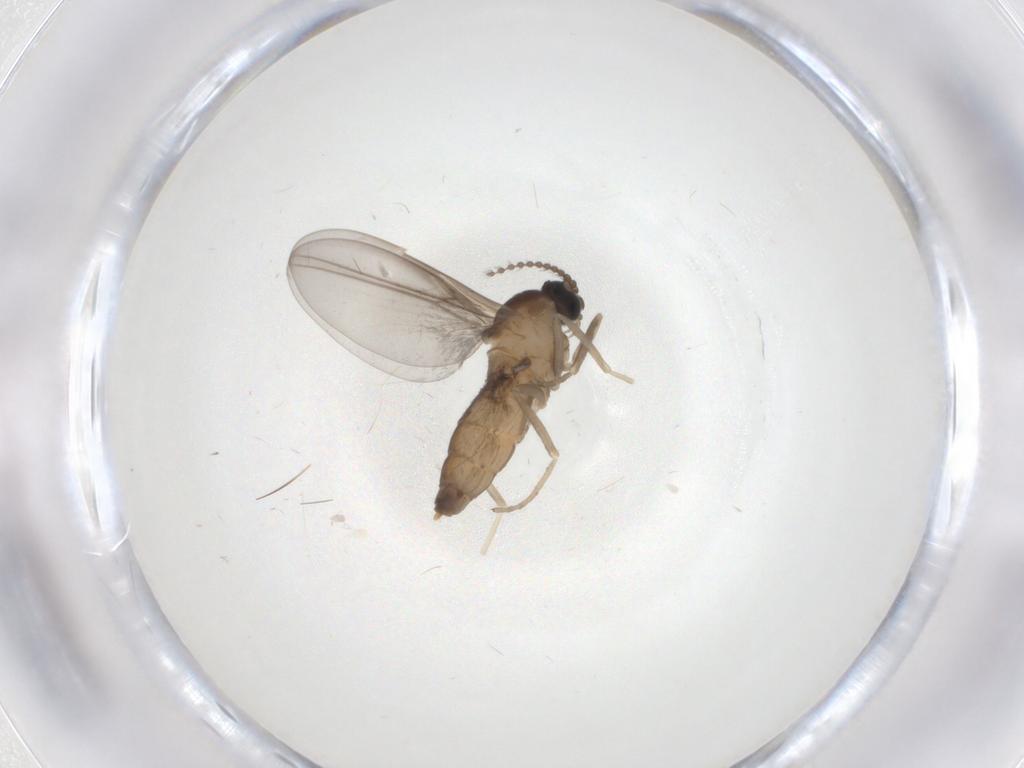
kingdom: Animalia
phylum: Arthropoda
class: Insecta
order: Diptera
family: Cecidomyiidae
